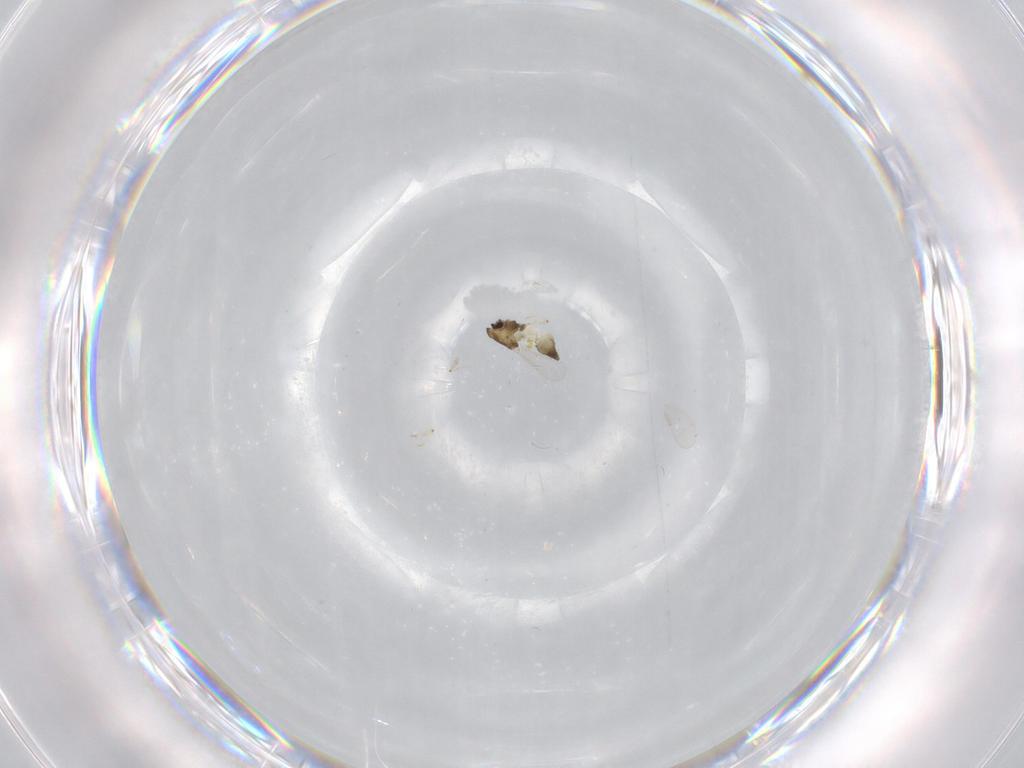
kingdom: Animalia
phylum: Arthropoda
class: Insecta
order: Diptera
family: Chironomidae
